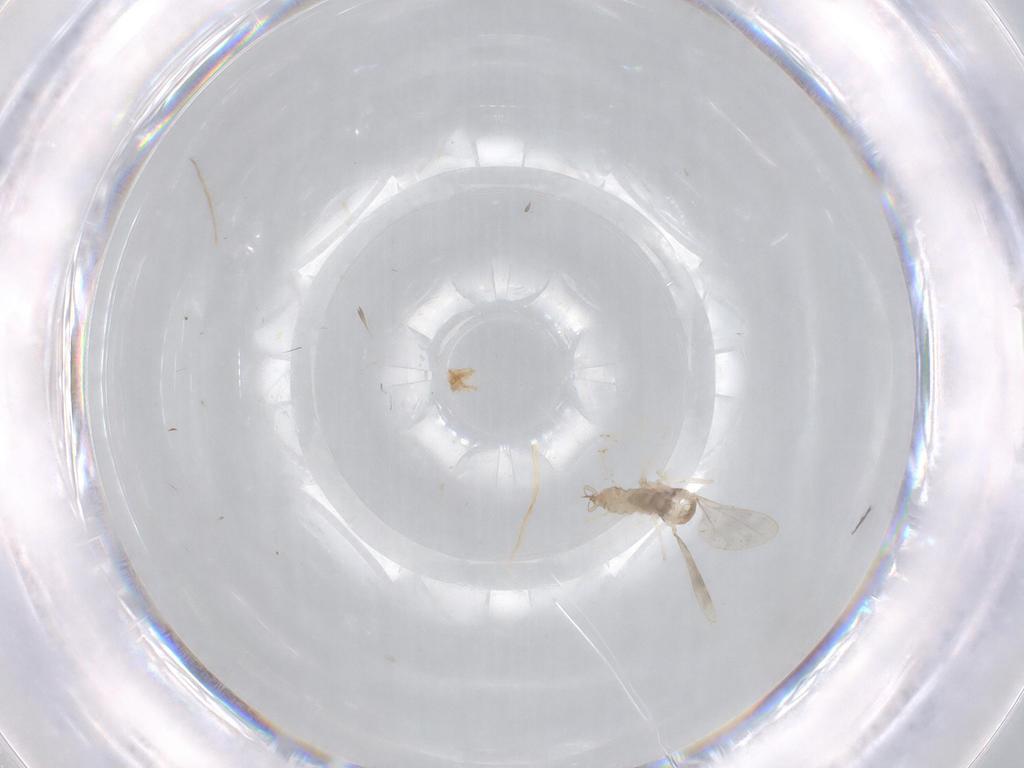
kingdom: Animalia
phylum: Arthropoda
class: Insecta
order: Diptera
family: Cecidomyiidae
